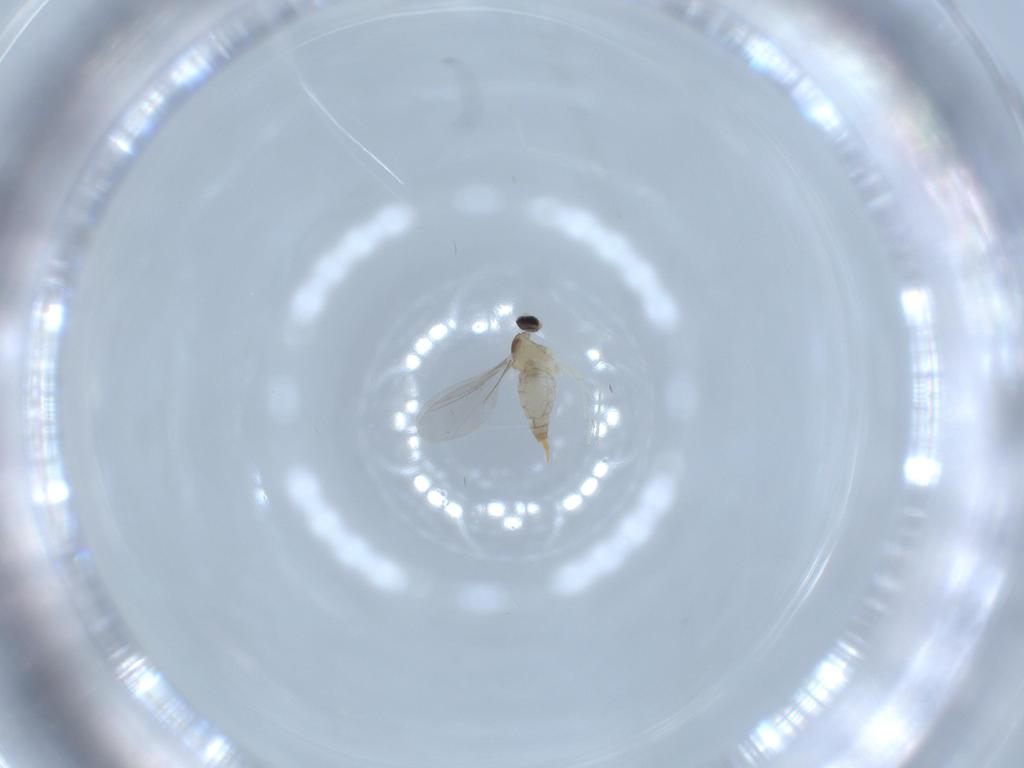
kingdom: Animalia
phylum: Arthropoda
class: Insecta
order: Diptera
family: Cecidomyiidae
